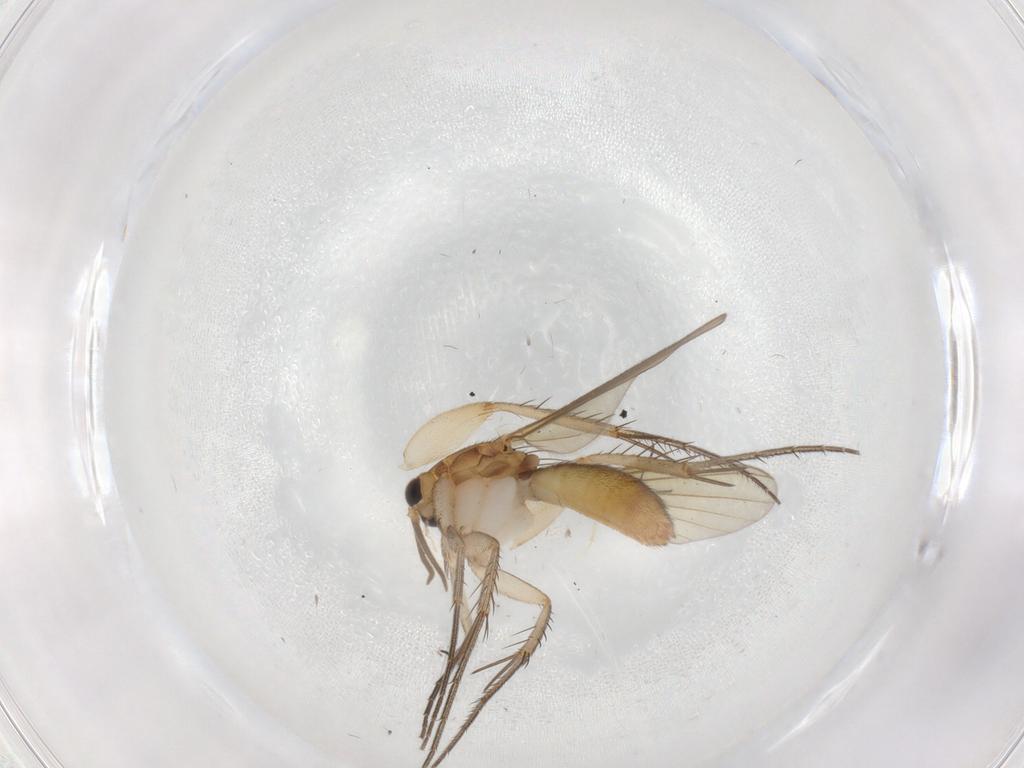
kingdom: Animalia
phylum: Arthropoda
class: Insecta
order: Diptera
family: Mycetophilidae
